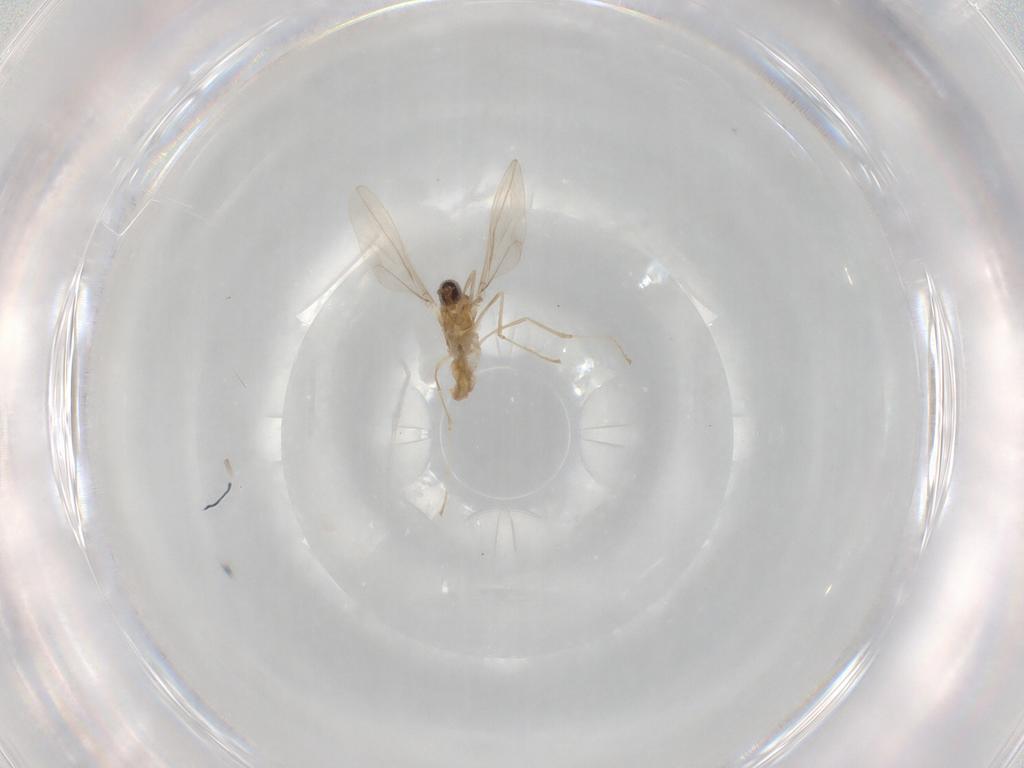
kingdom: Animalia
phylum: Arthropoda
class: Insecta
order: Diptera
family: Cecidomyiidae
